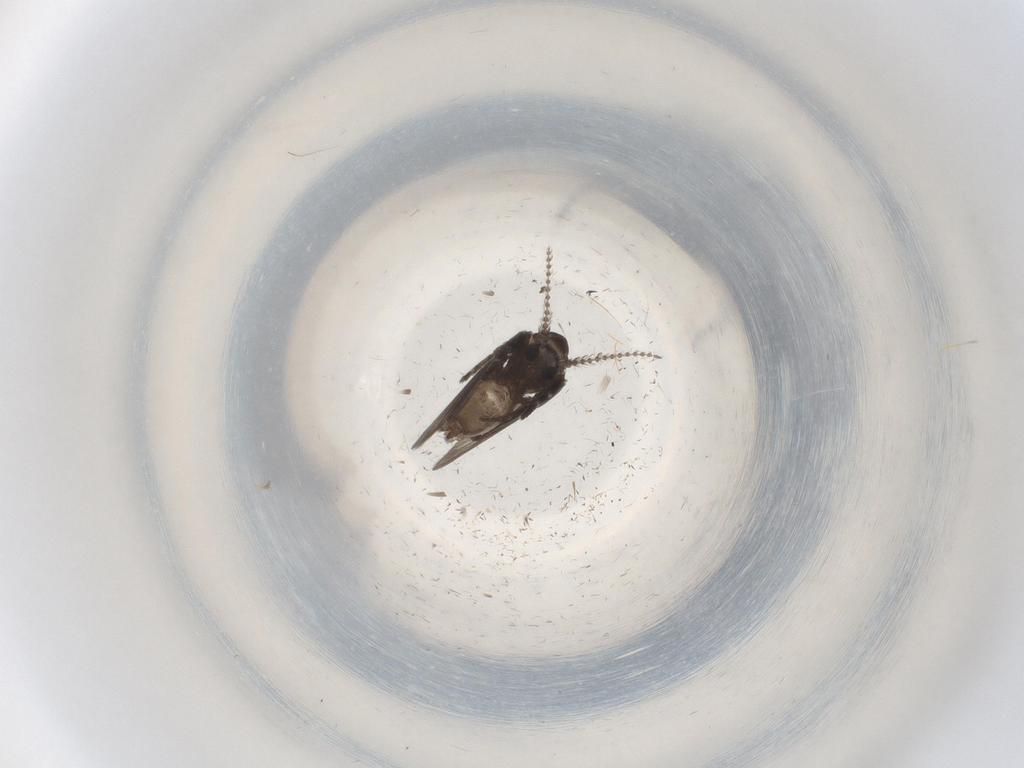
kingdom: Animalia
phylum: Arthropoda
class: Insecta
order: Diptera
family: Psychodidae
